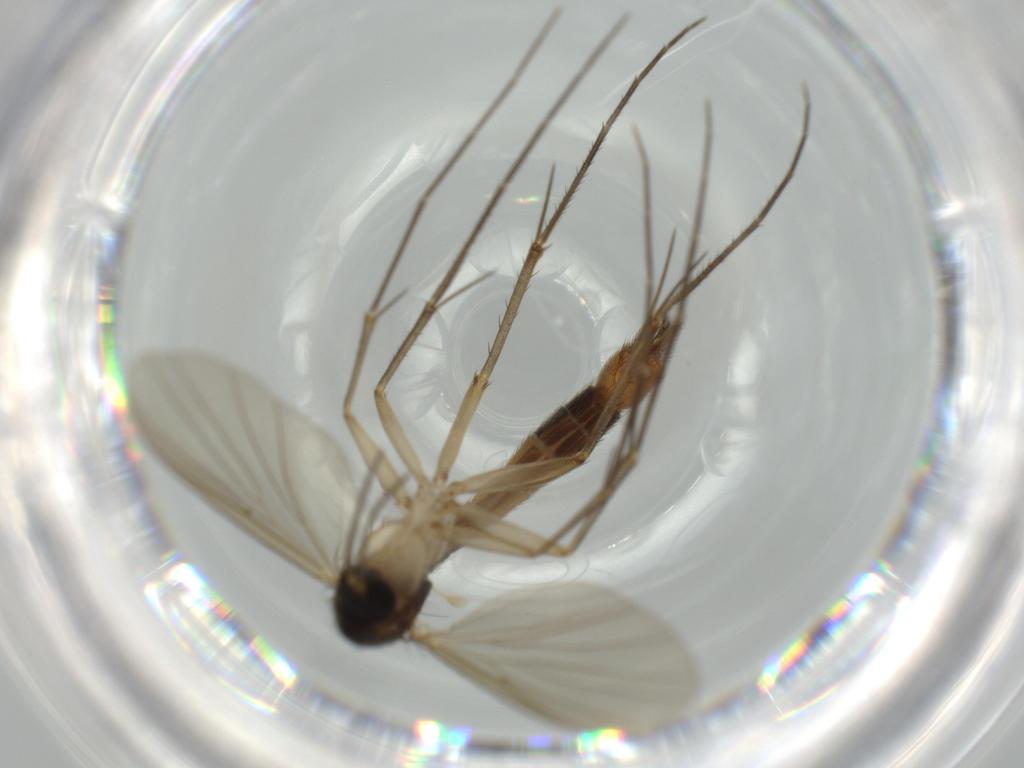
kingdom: Animalia
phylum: Arthropoda
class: Insecta
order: Diptera
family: Mycetophilidae
